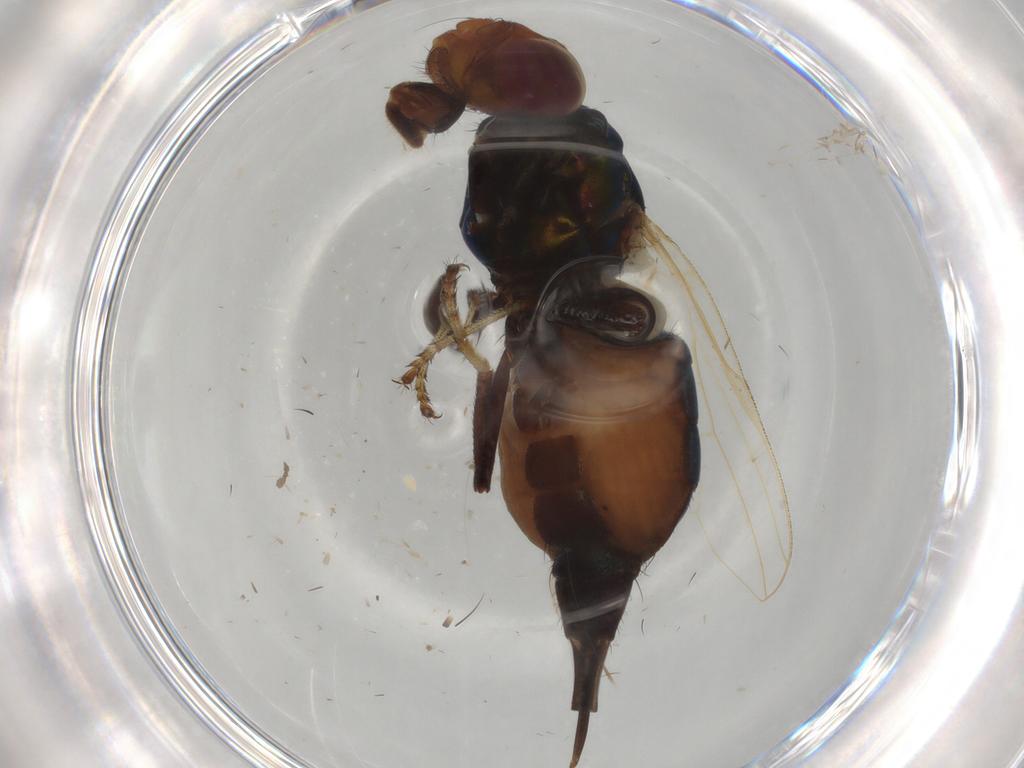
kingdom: Animalia
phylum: Arthropoda
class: Insecta
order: Diptera
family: Ulidiidae
